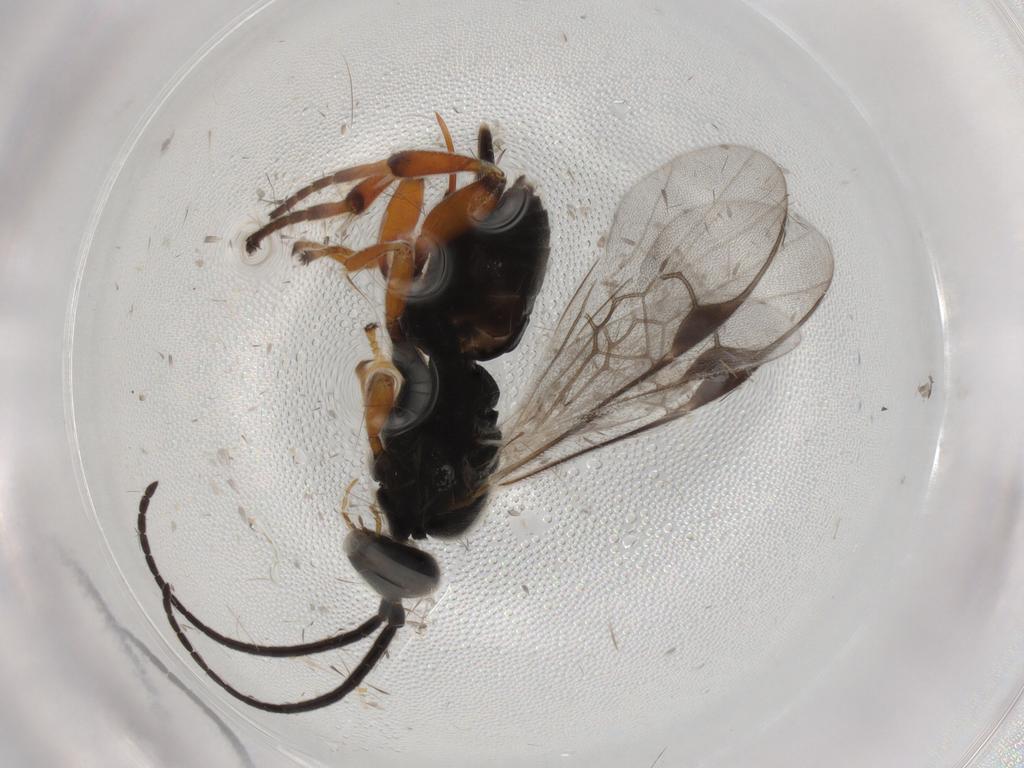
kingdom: Animalia
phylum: Arthropoda
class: Insecta
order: Hymenoptera
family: Braconidae
